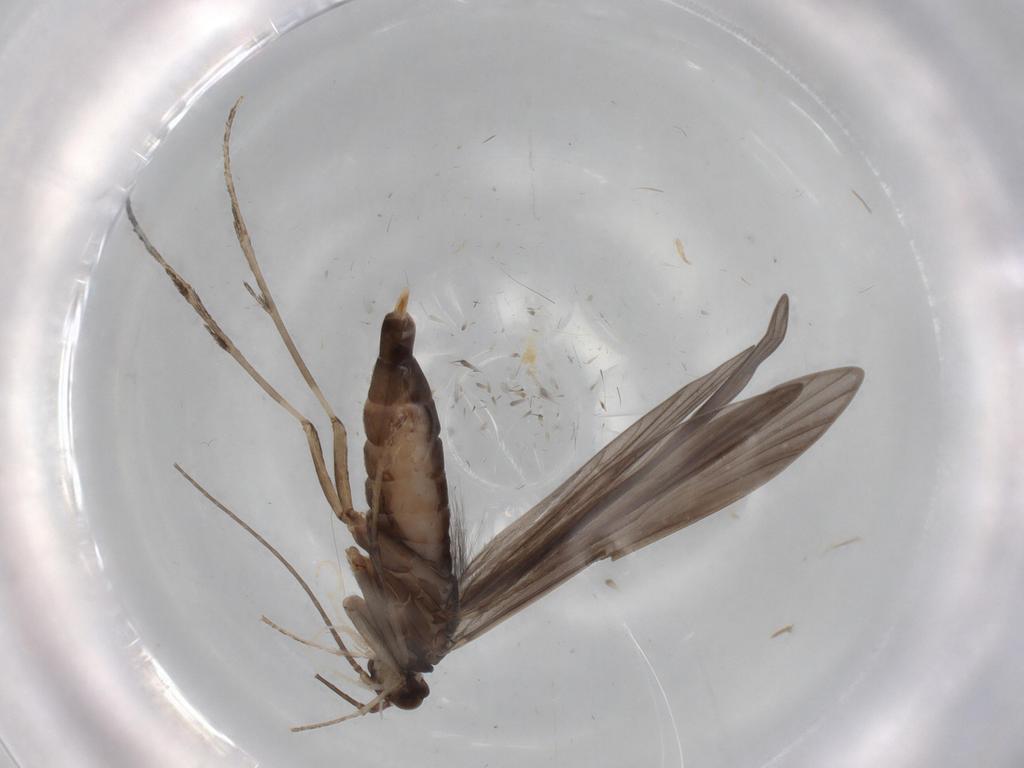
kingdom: Animalia
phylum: Arthropoda
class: Insecta
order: Trichoptera
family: Xiphocentronidae
